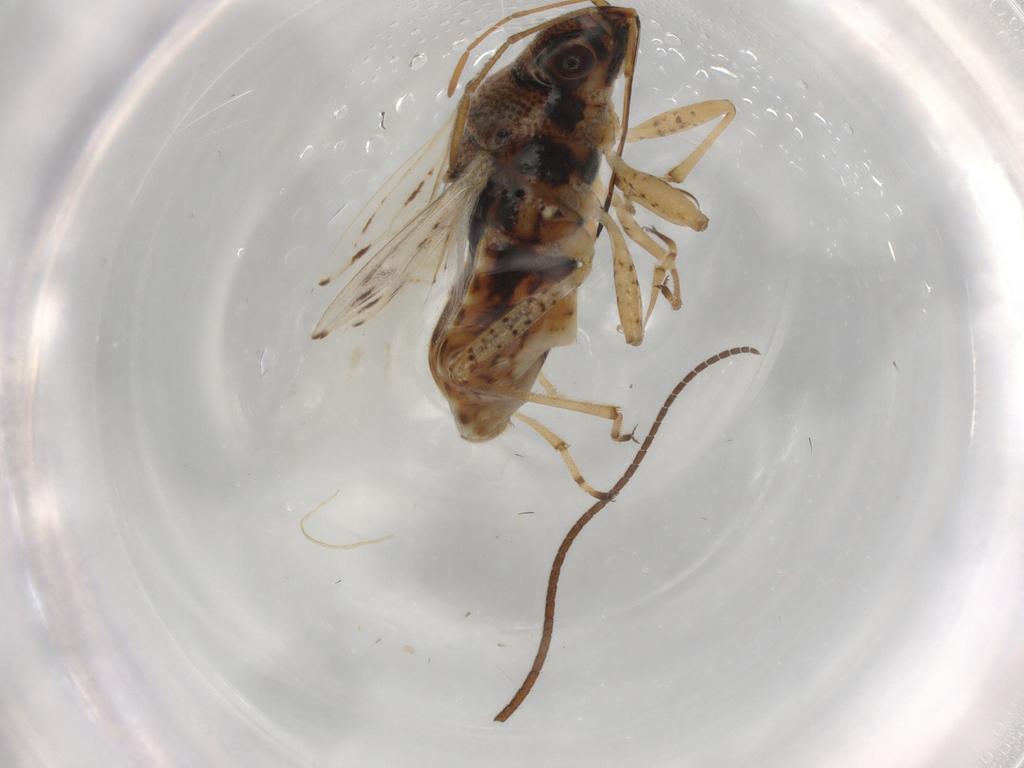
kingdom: Animalia
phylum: Arthropoda
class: Insecta
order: Hemiptera
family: Lygaeidae
